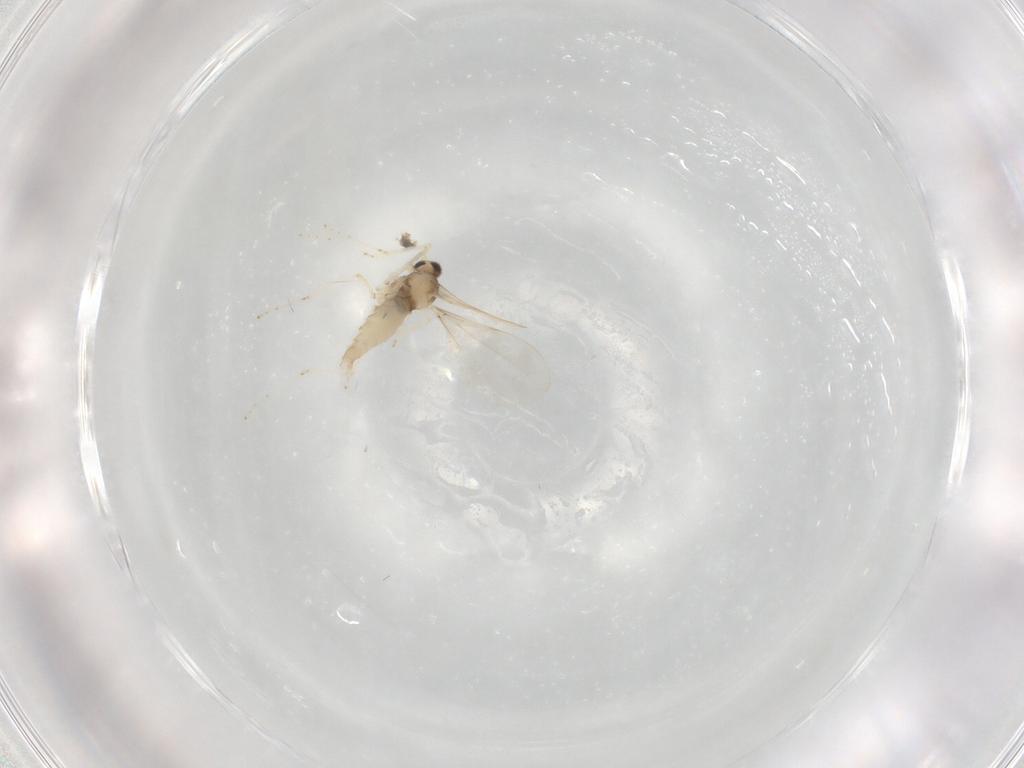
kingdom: Animalia
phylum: Arthropoda
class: Insecta
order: Diptera
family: Cecidomyiidae
